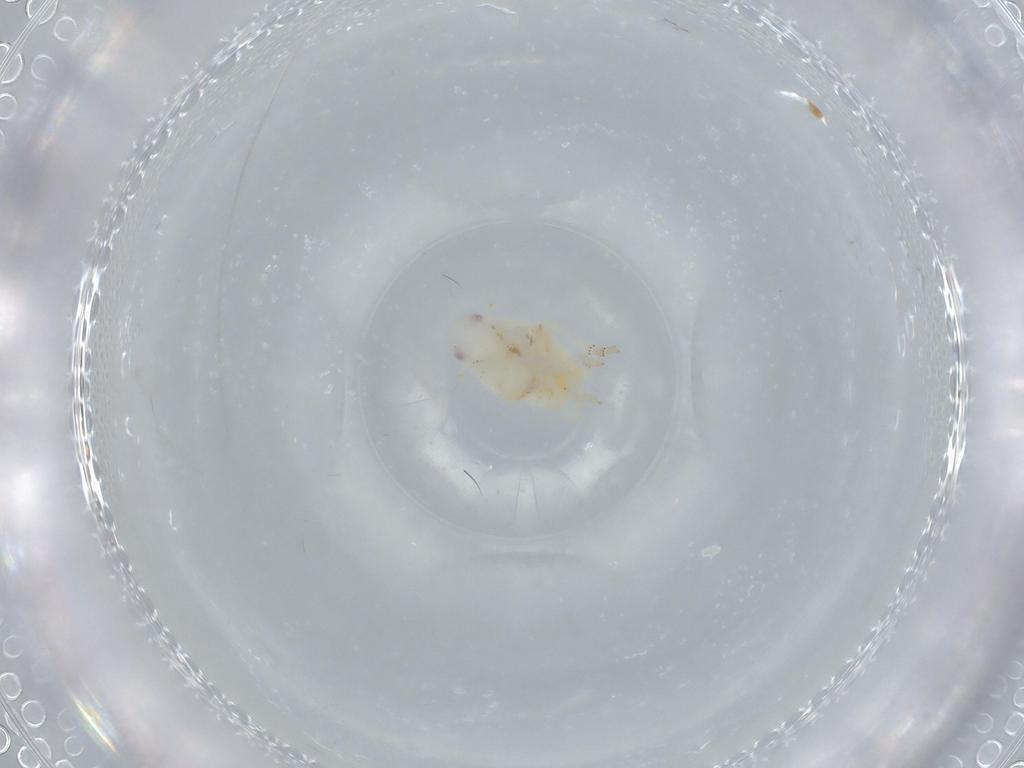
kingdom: Animalia
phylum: Arthropoda
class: Insecta
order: Hemiptera
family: Flatidae
